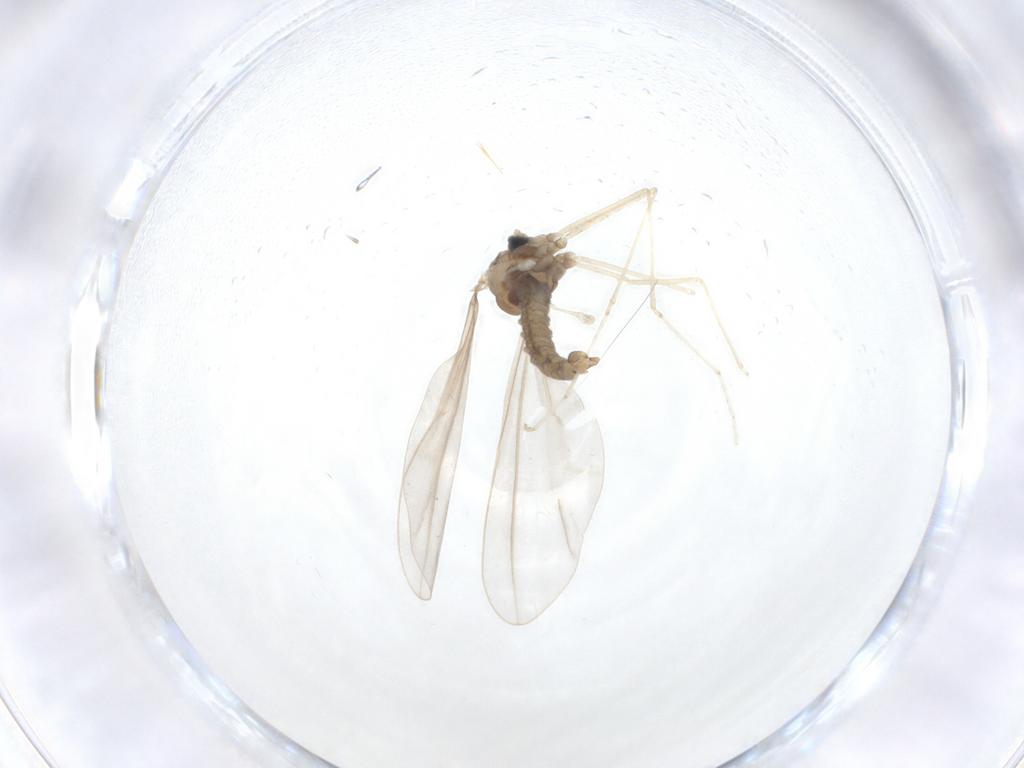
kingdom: Animalia
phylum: Arthropoda
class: Insecta
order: Diptera
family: Cecidomyiidae
